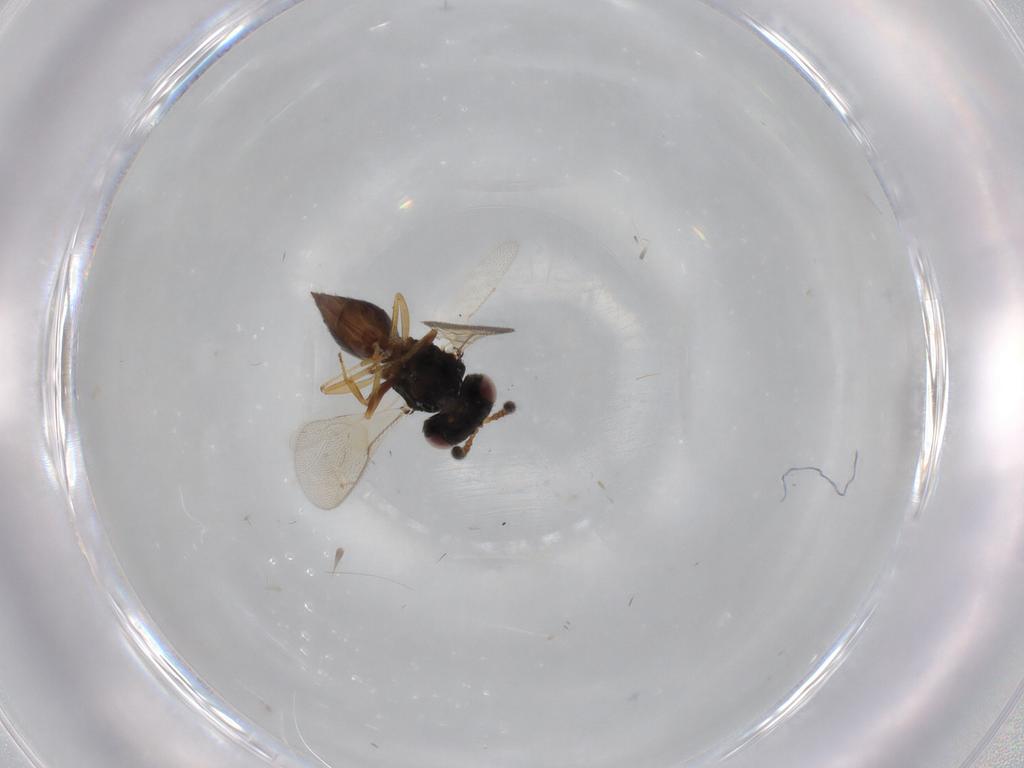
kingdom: Animalia
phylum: Arthropoda
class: Insecta
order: Hymenoptera
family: Pteromalidae
